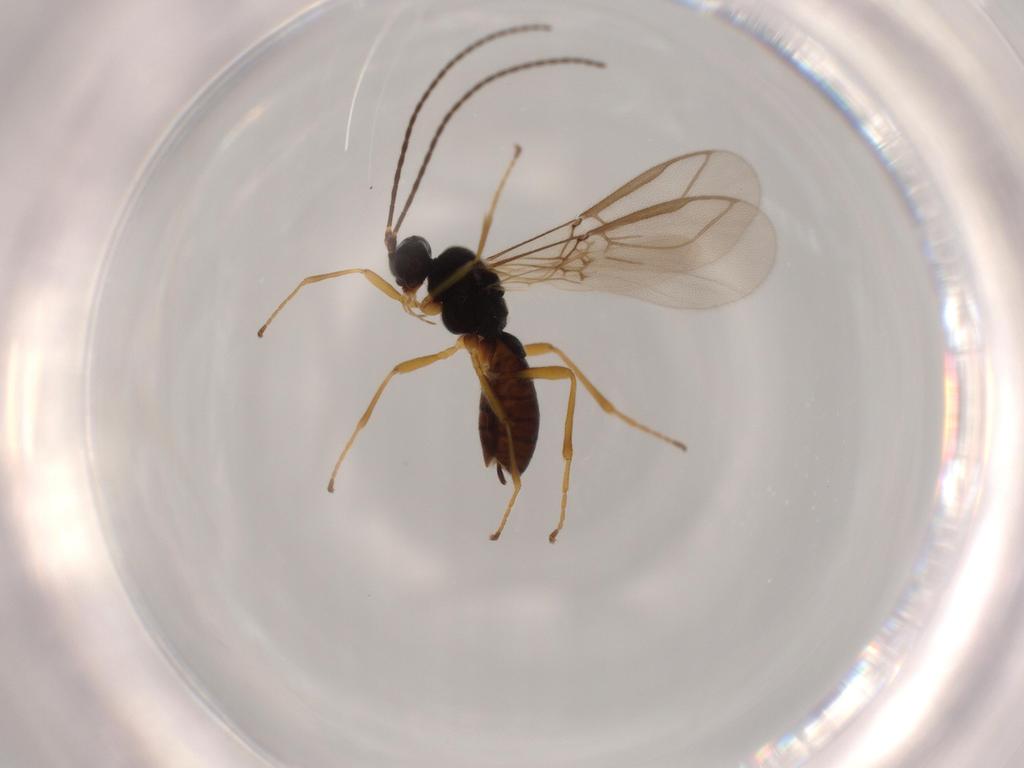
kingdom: Animalia
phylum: Arthropoda
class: Insecta
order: Hymenoptera
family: Braconidae
